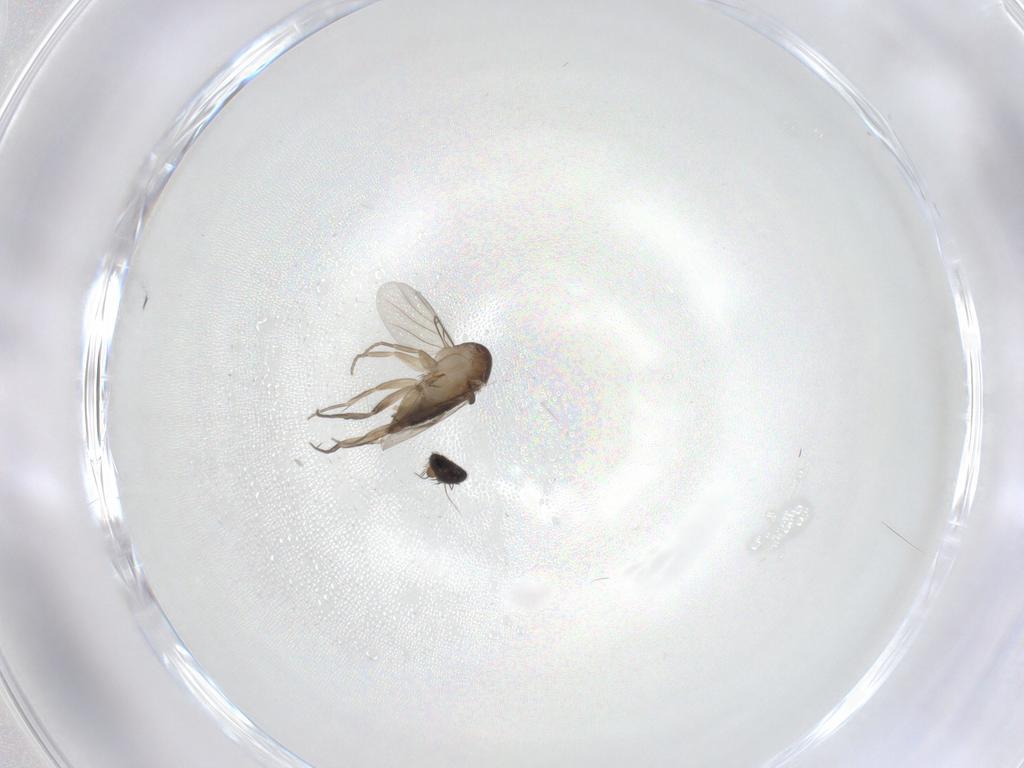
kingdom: Animalia
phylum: Arthropoda
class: Insecta
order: Diptera
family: Phoridae
